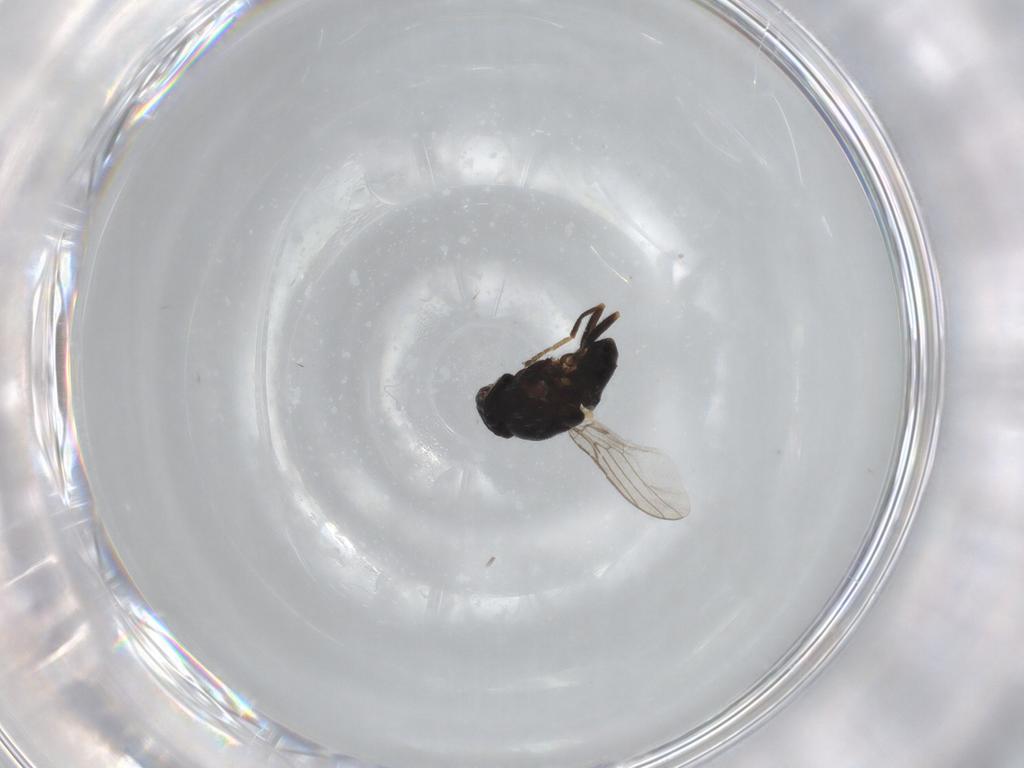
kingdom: Animalia
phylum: Arthropoda
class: Insecta
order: Diptera
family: Chloropidae
